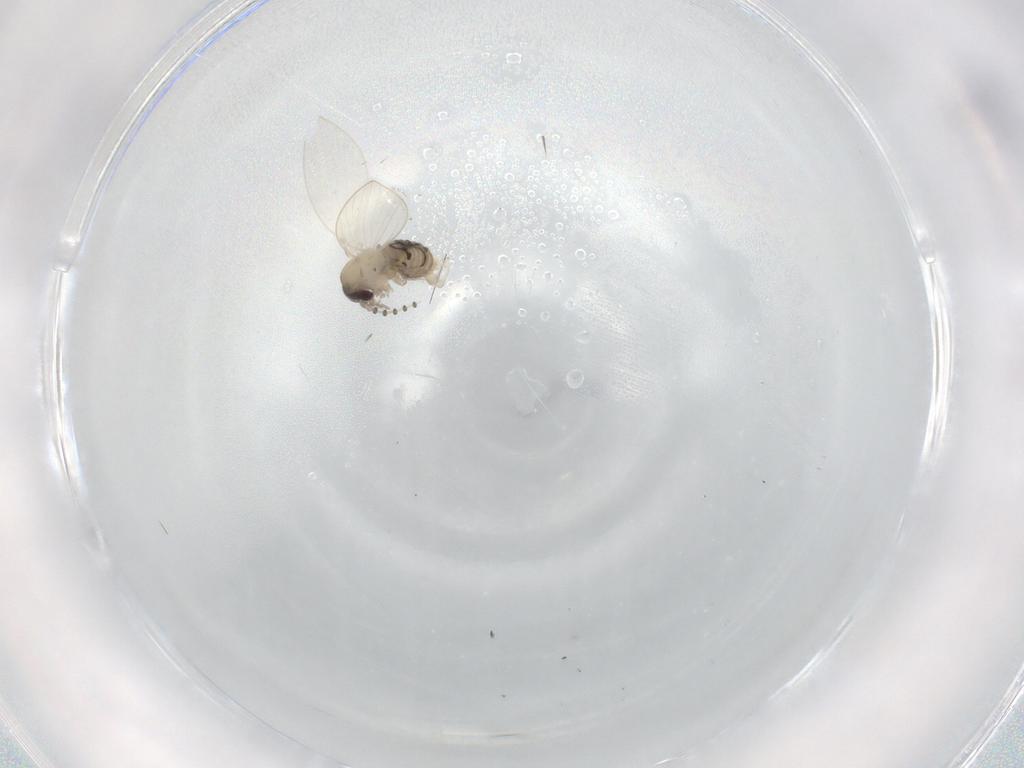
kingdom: Animalia
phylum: Arthropoda
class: Insecta
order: Diptera
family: Psychodidae
